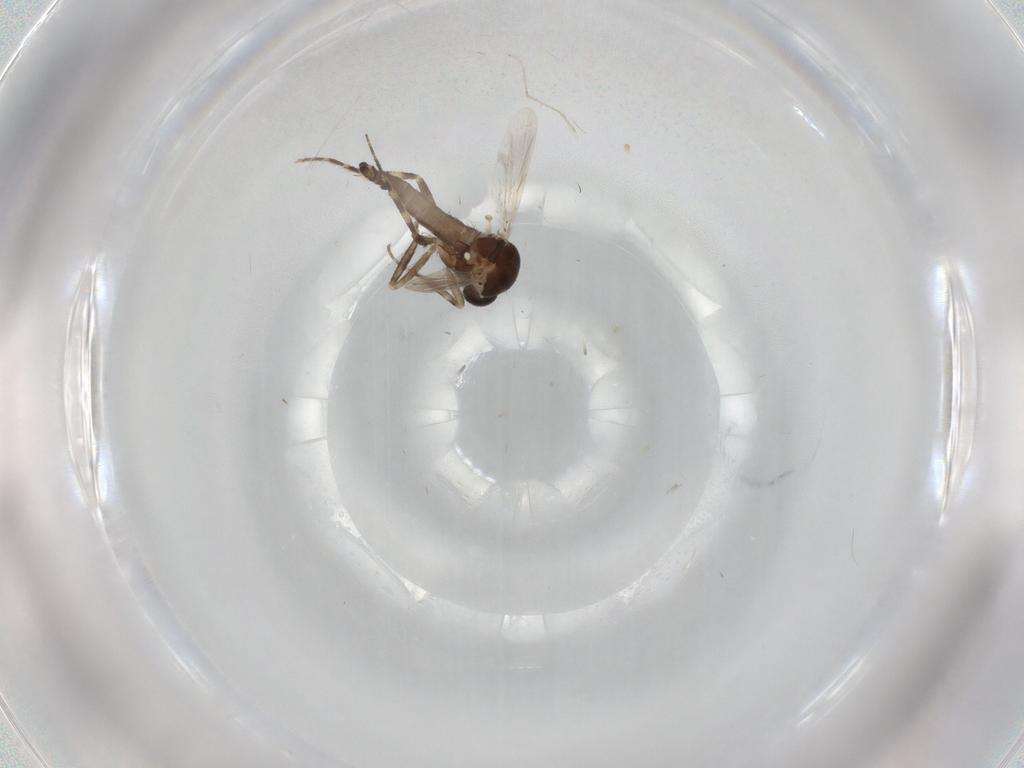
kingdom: Animalia
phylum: Arthropoda
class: Insecta
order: Diptera
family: Ceratopogonidae
